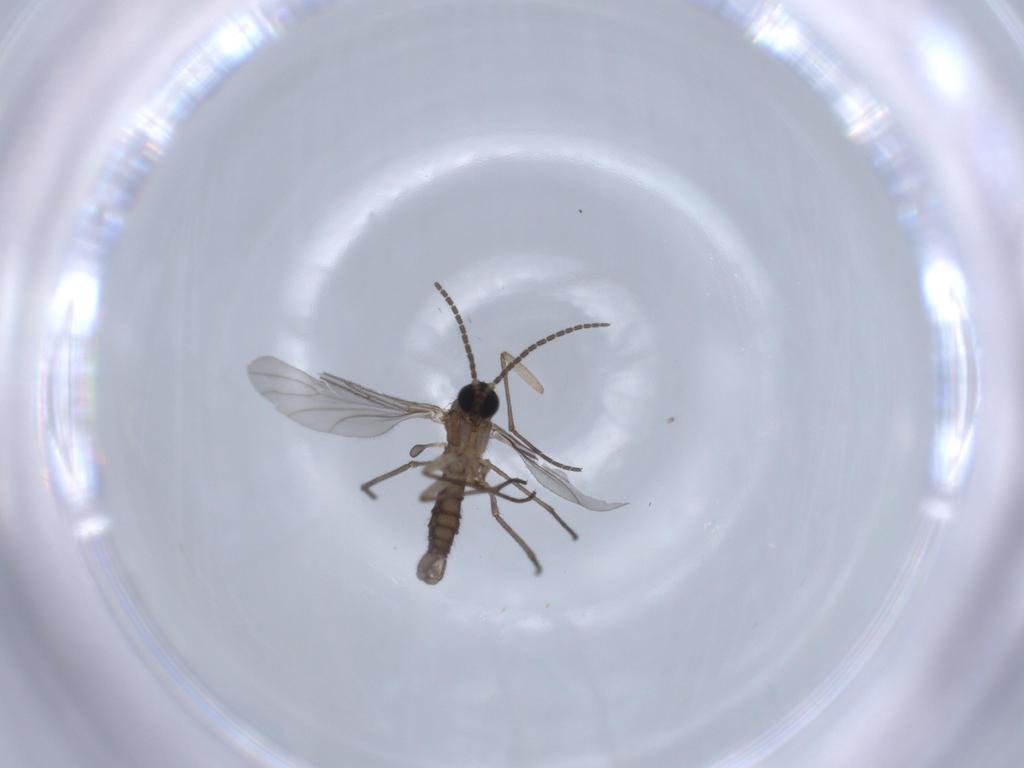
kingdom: Animalia
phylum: Arthropoda
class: Insecta
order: Diptera
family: Sciaridae
